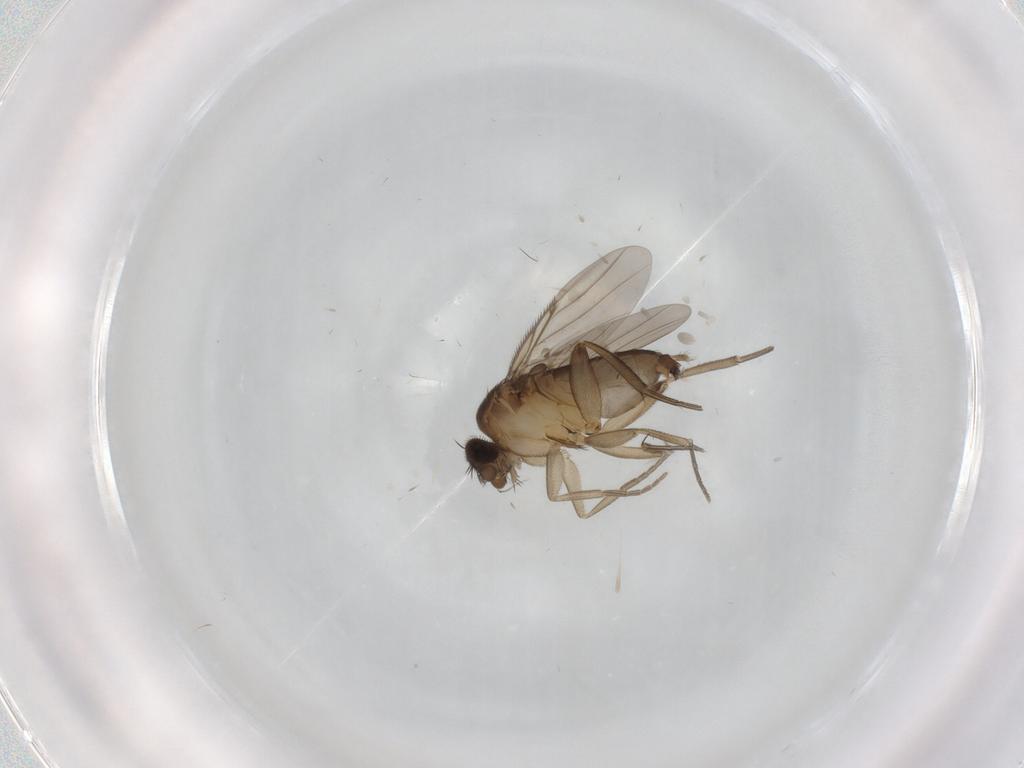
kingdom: Animalia
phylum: Arthropoda
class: Insecta
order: Diptera
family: Phoridae
